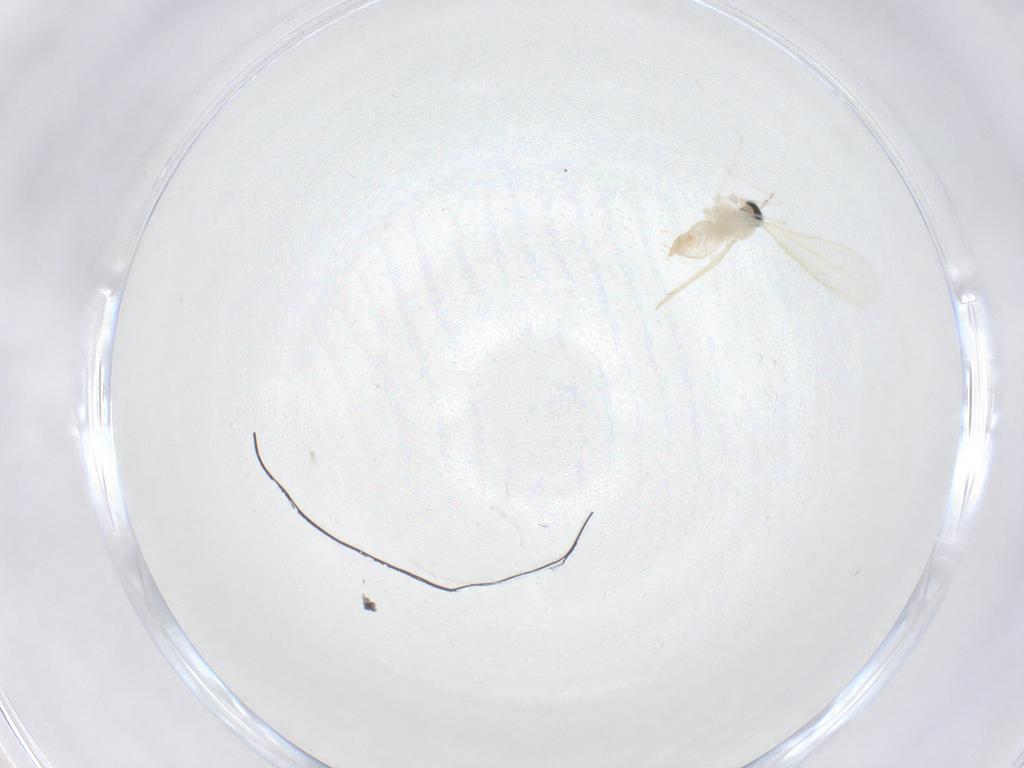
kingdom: Animalia
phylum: Arthropoda
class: Insecta
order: Diptera
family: Cecidomyiidae
